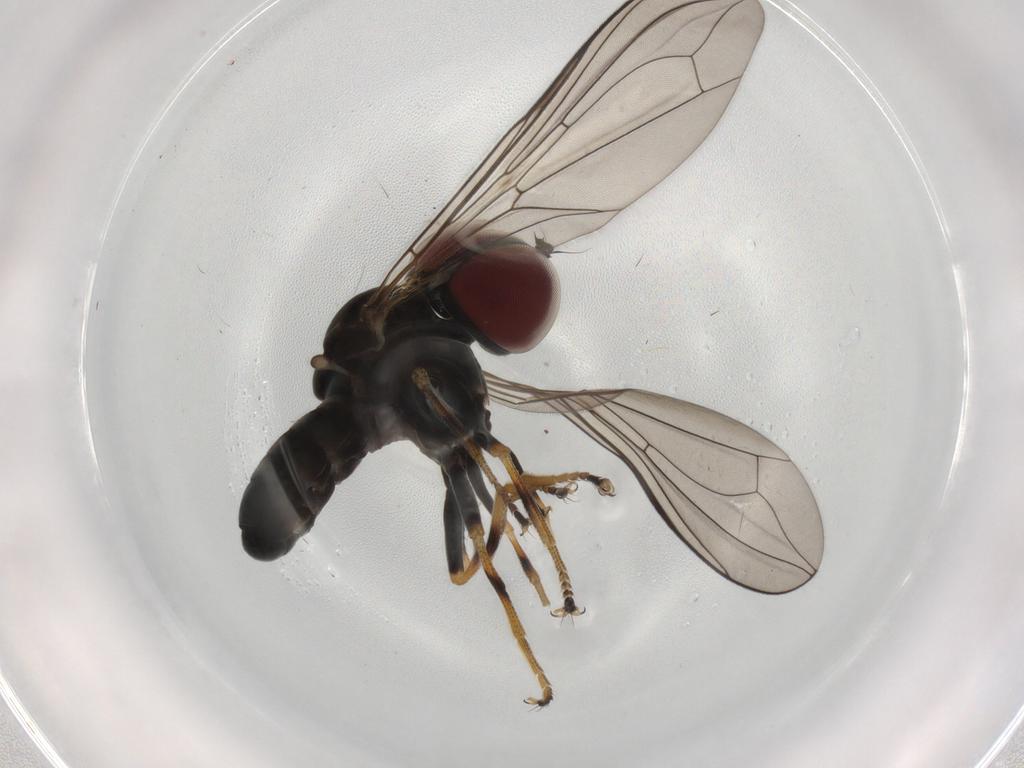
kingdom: Animalia
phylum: Arthropoda
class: Insecta
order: Diptera
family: Pipunculidae
